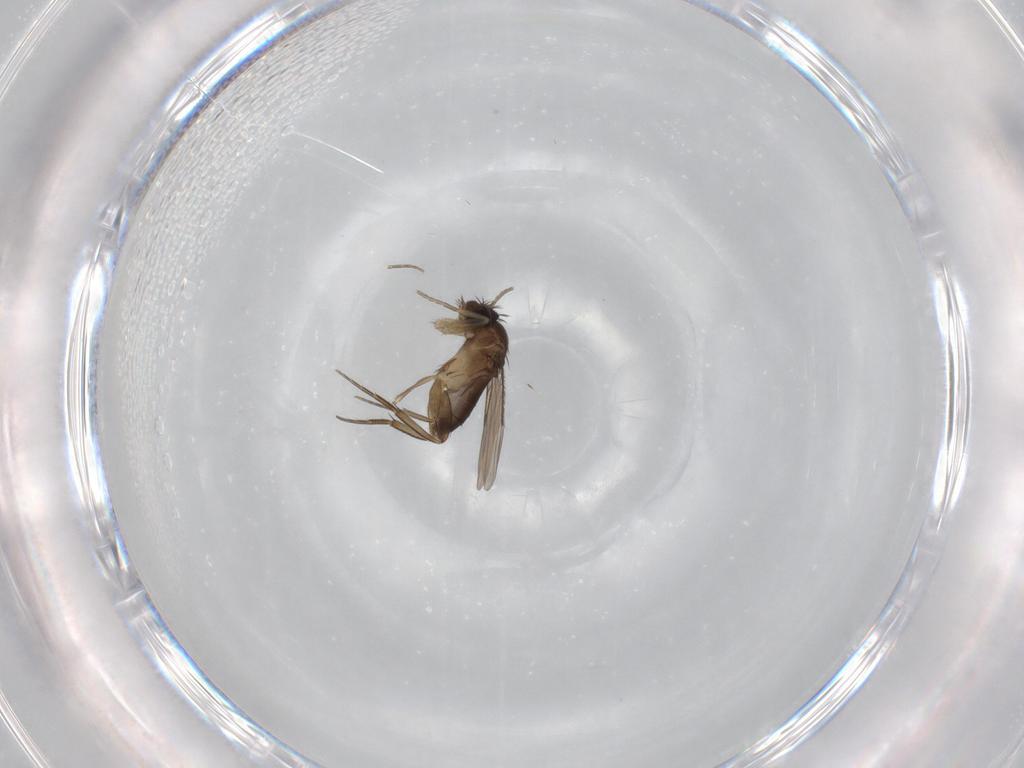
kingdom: Animalia
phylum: Arthropoda
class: Insecta
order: Diptera
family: Phoridae
